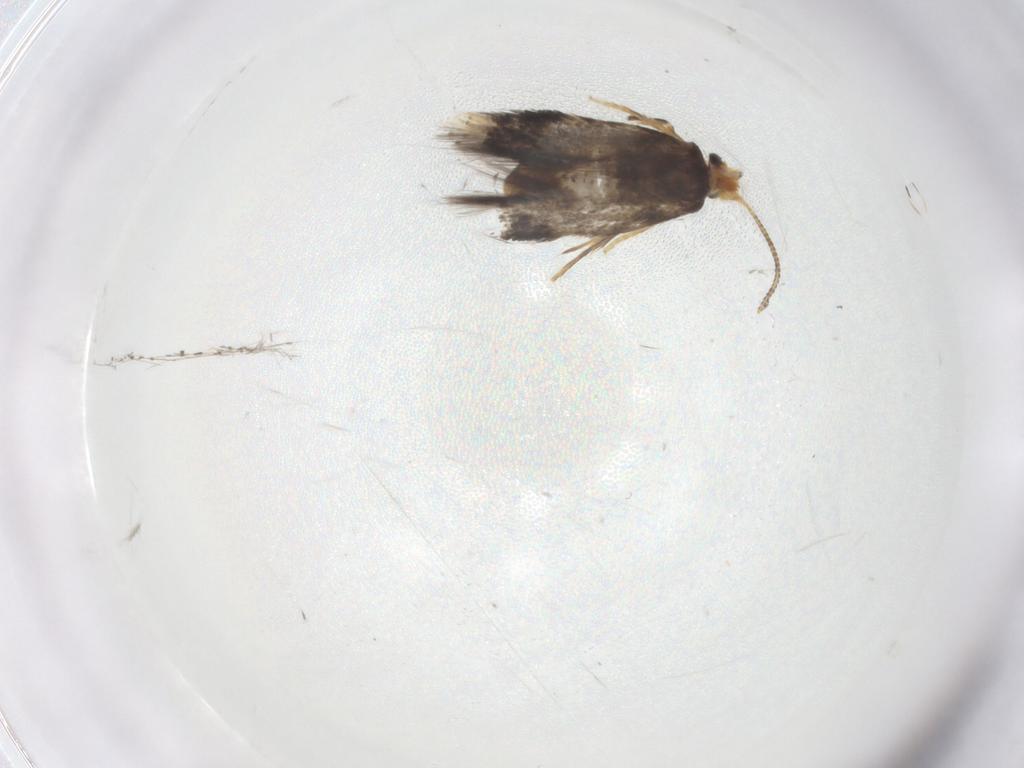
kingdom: Animalia
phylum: Arthropoda
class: Insecta
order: Lepidoptera
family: Nepticulidae
